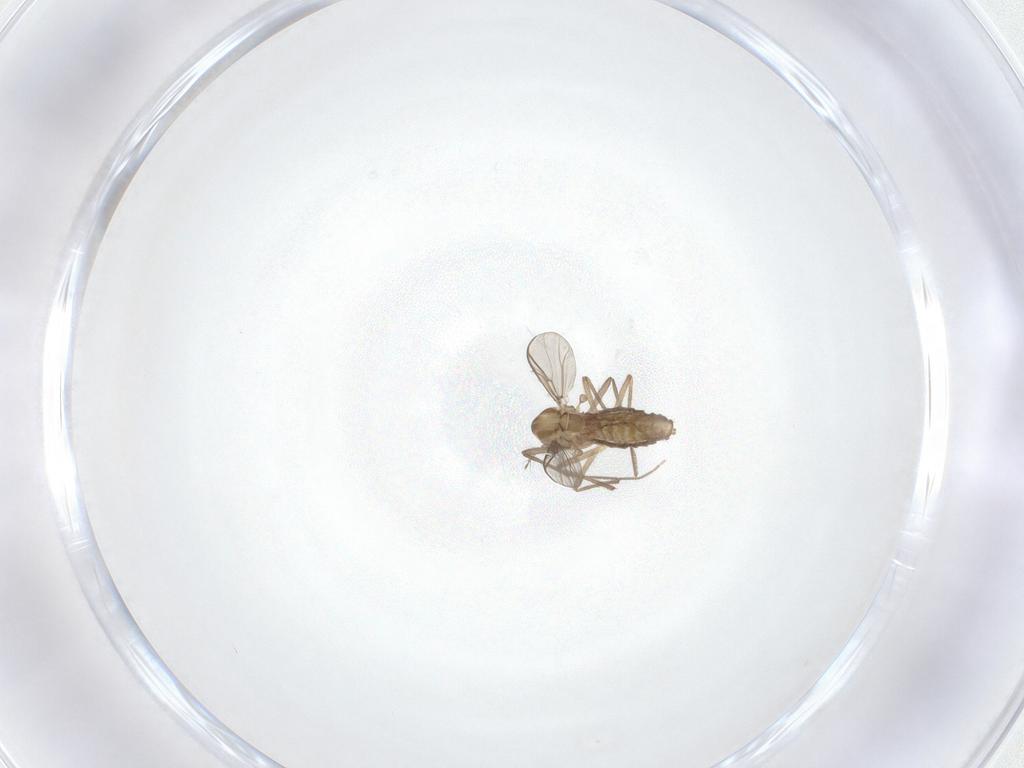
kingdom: Animalia
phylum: Arthropoda
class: Insecta
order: Diptera
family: Chironomidae
